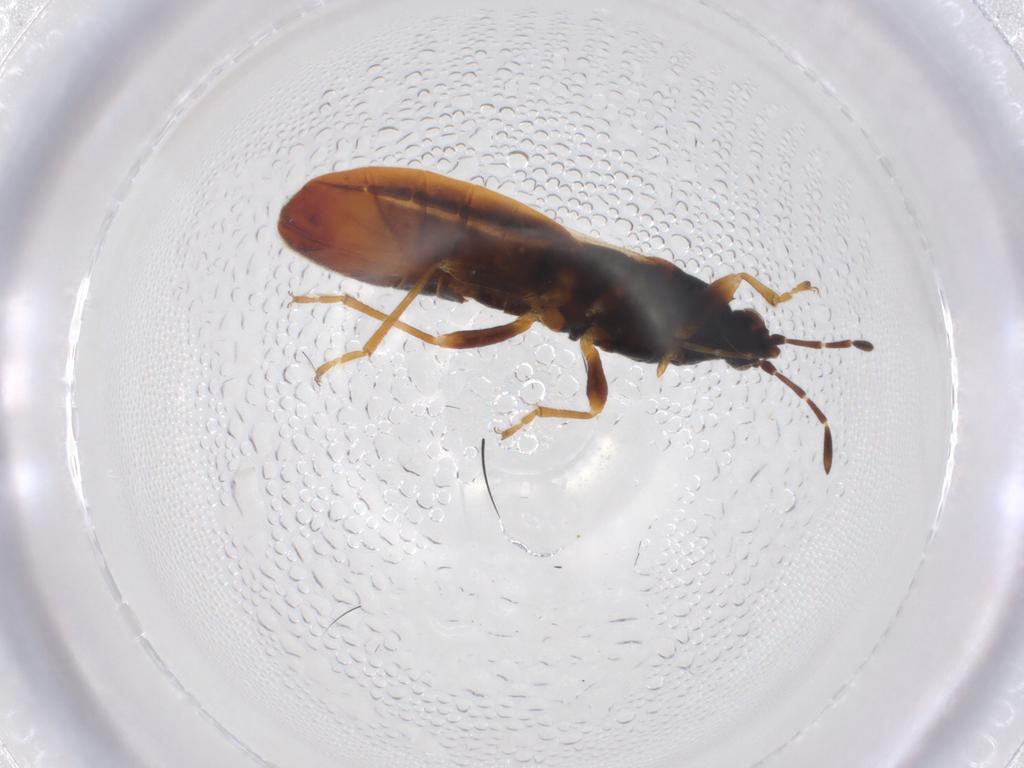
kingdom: Animalia
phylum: Arthropoda
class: Insecta
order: Hemiptera
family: Blissidae
